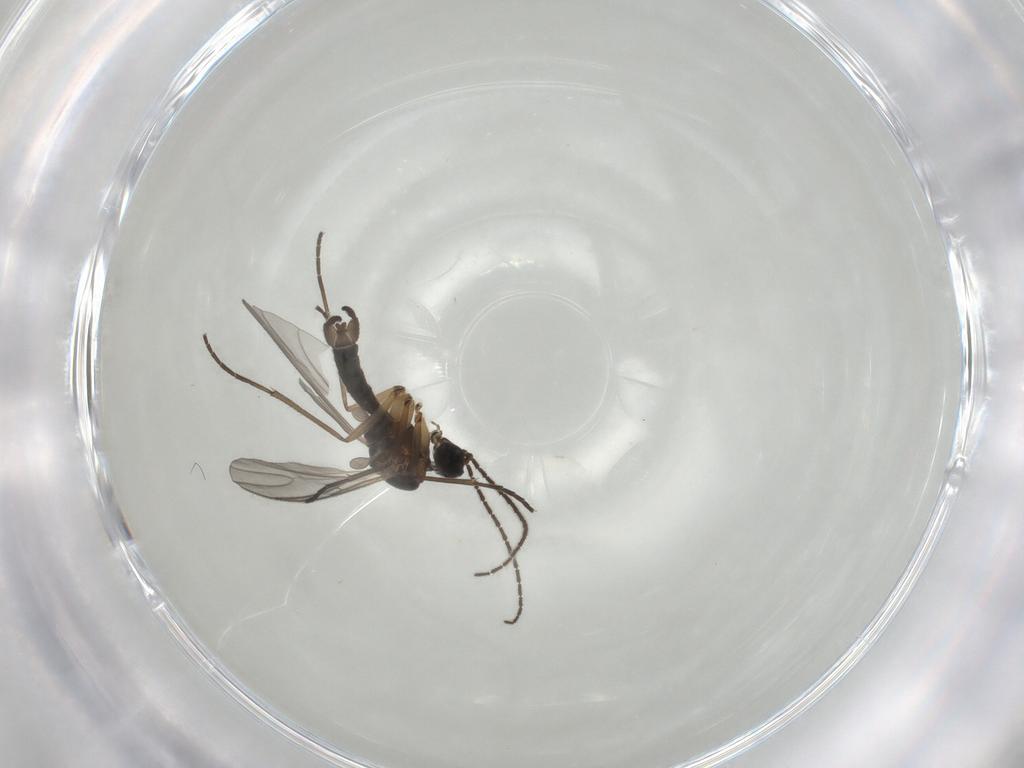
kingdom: Animalia
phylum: Arthropoda
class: Insecta
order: Diptera
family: Sciaridae
